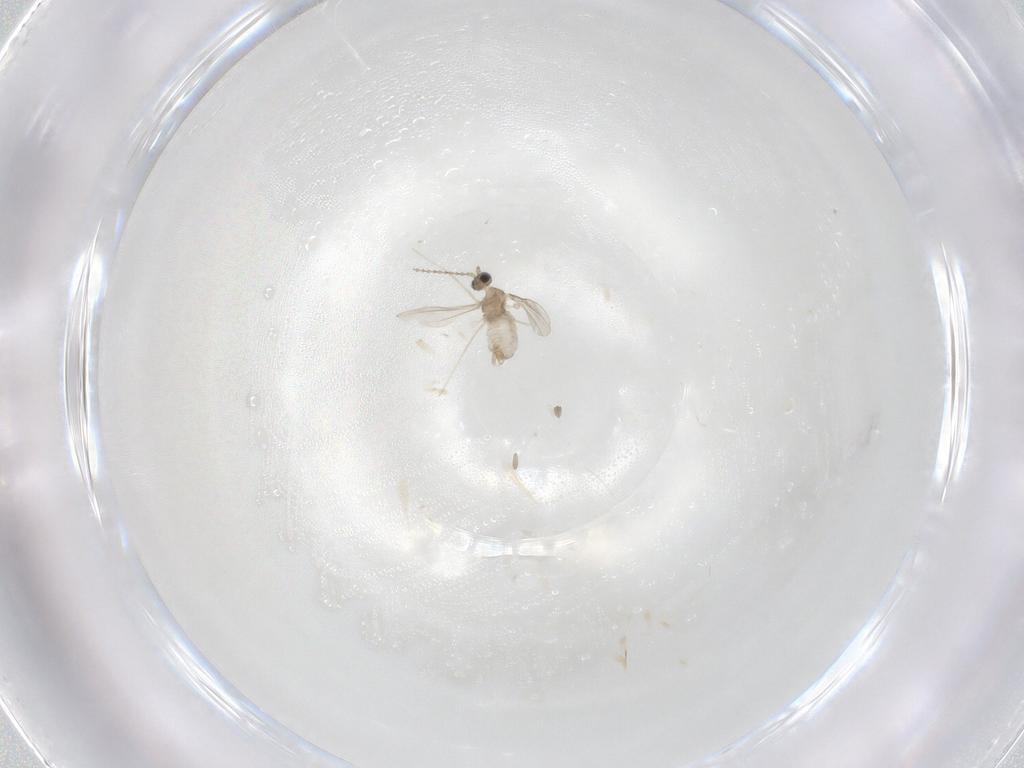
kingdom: Animalia
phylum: Arthropoda
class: Insecta
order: Diptera
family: Cecidomyiidae
